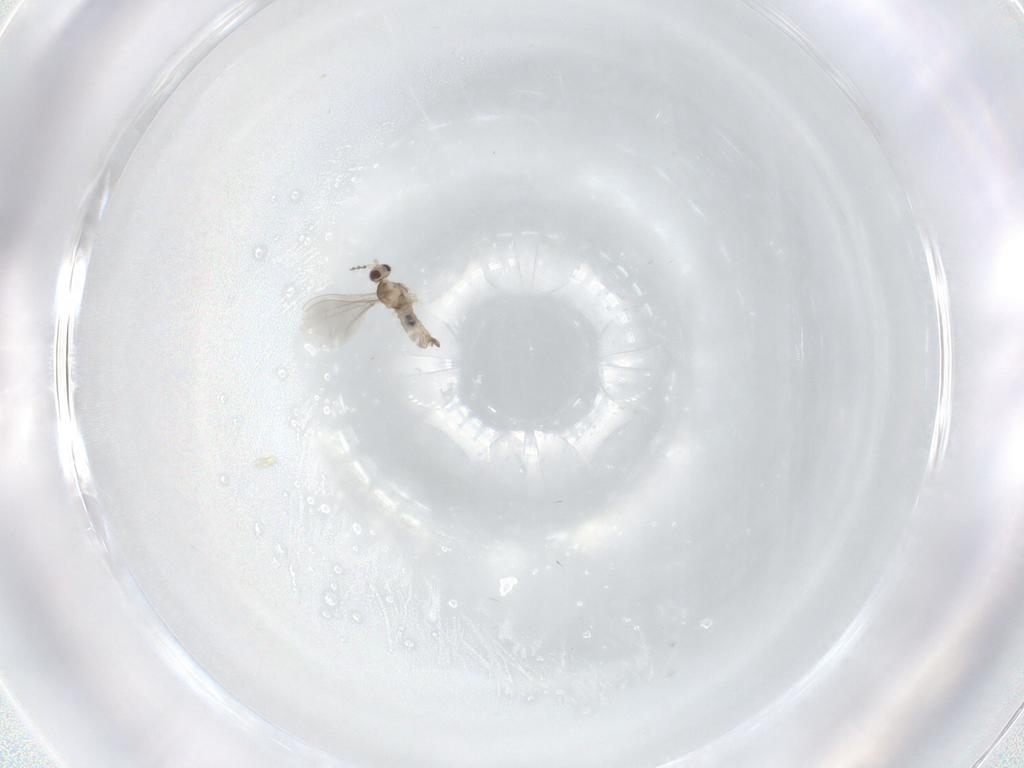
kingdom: Animalia
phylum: Arthropoda
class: Insecta
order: Diptera
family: Cecidomyiidae
